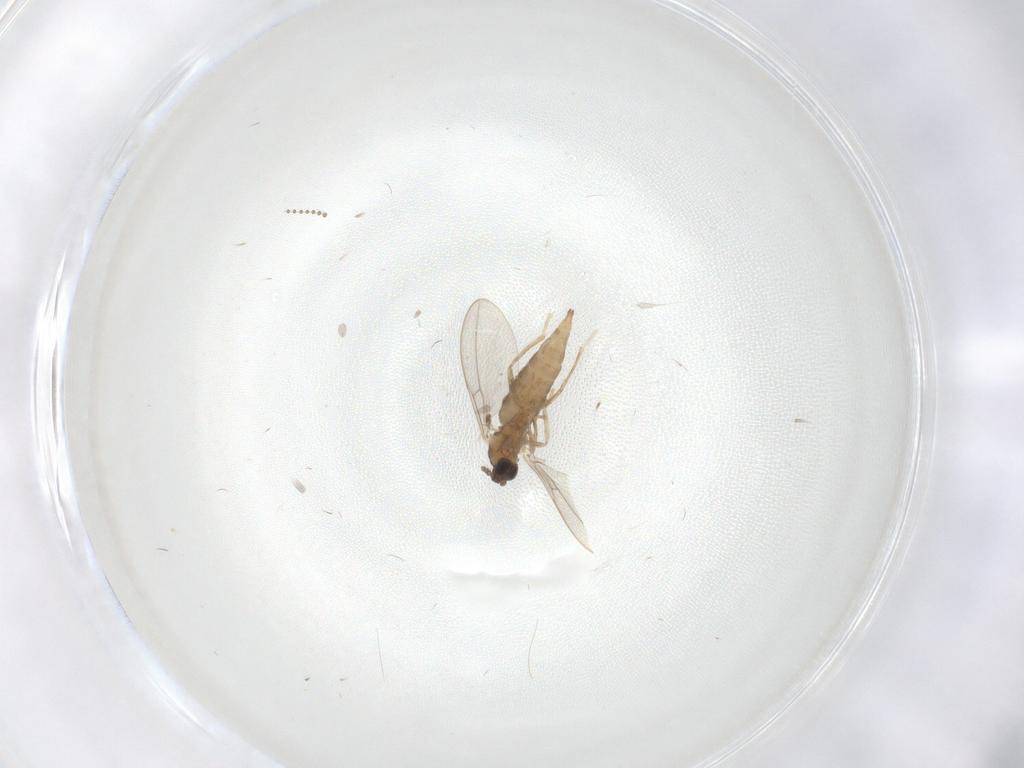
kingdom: Animalia
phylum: Arthropoda
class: Insecta
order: Diptera
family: Cecidomyiidae
